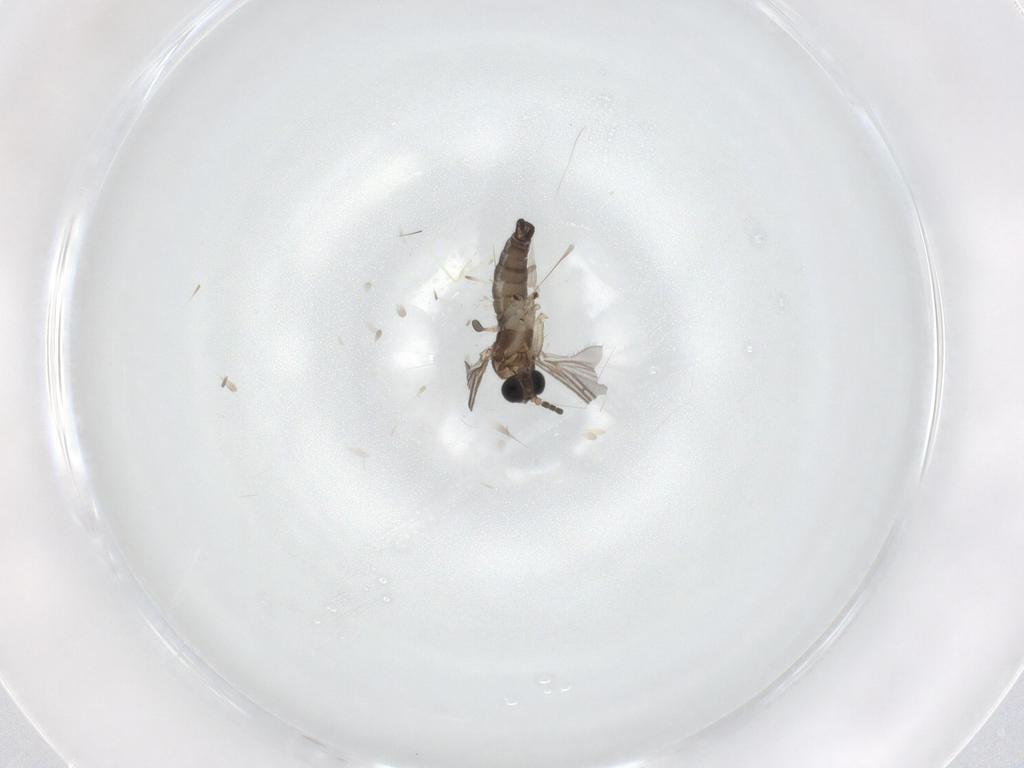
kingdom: Animalia
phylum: Arthropoda
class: Insecta
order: Diptera
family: Sciaridae
